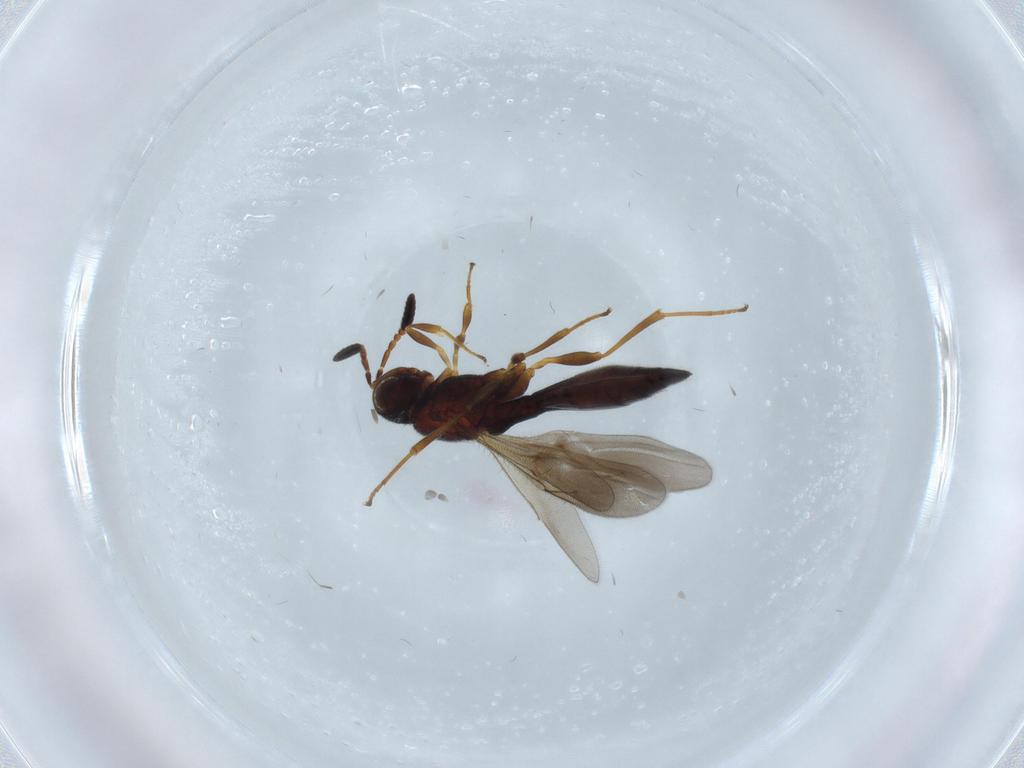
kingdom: Animalia
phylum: Arthropoda
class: Insecta
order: Hymenoptera
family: Scelionidae
